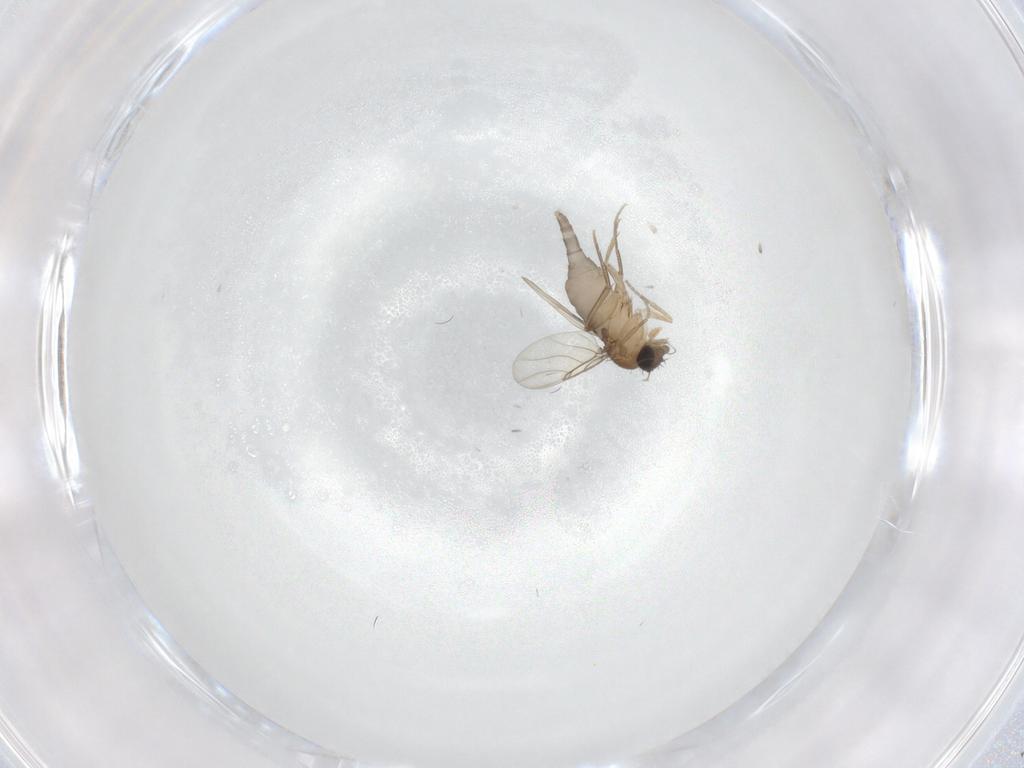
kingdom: Animalia
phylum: Arthropoda
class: Insecta
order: Diptera
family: Phoridae
